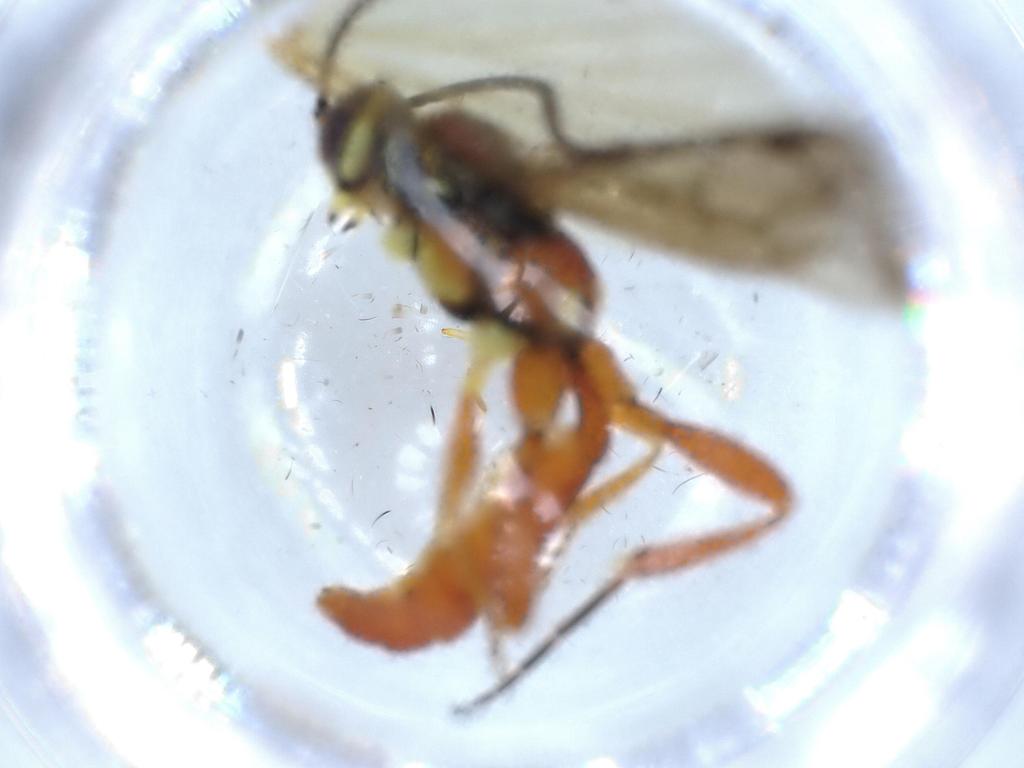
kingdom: Animalia
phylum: Arthropoda
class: Insecta
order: Hymenoptera
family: Ichneumonidae
